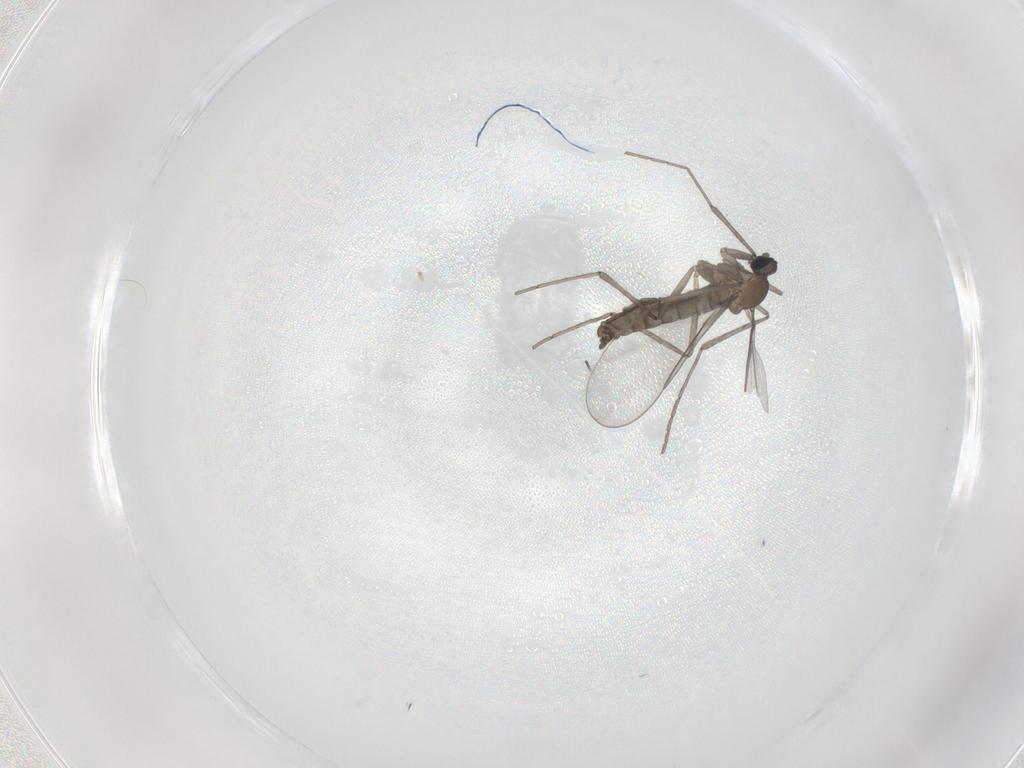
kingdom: Animalia
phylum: Arthropoda
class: Insecta
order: Diptera
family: Cecidomyiidae
